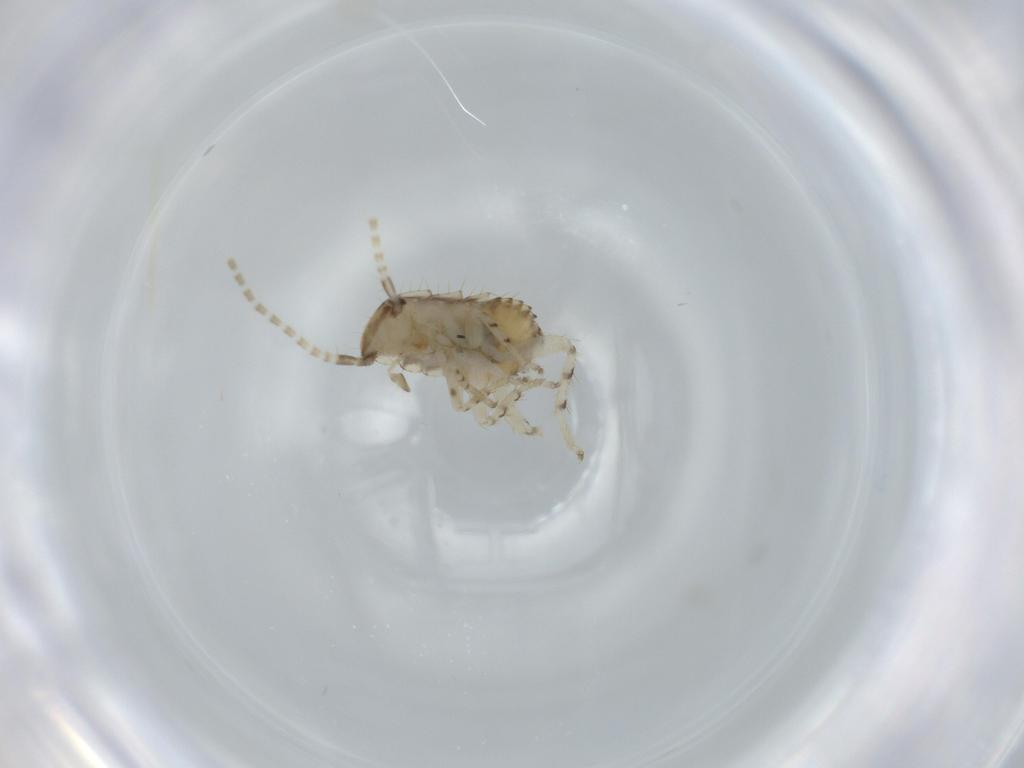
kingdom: Animalia
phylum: Arthropoda
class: Insecta
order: Blattodea
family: Ectobiidae
